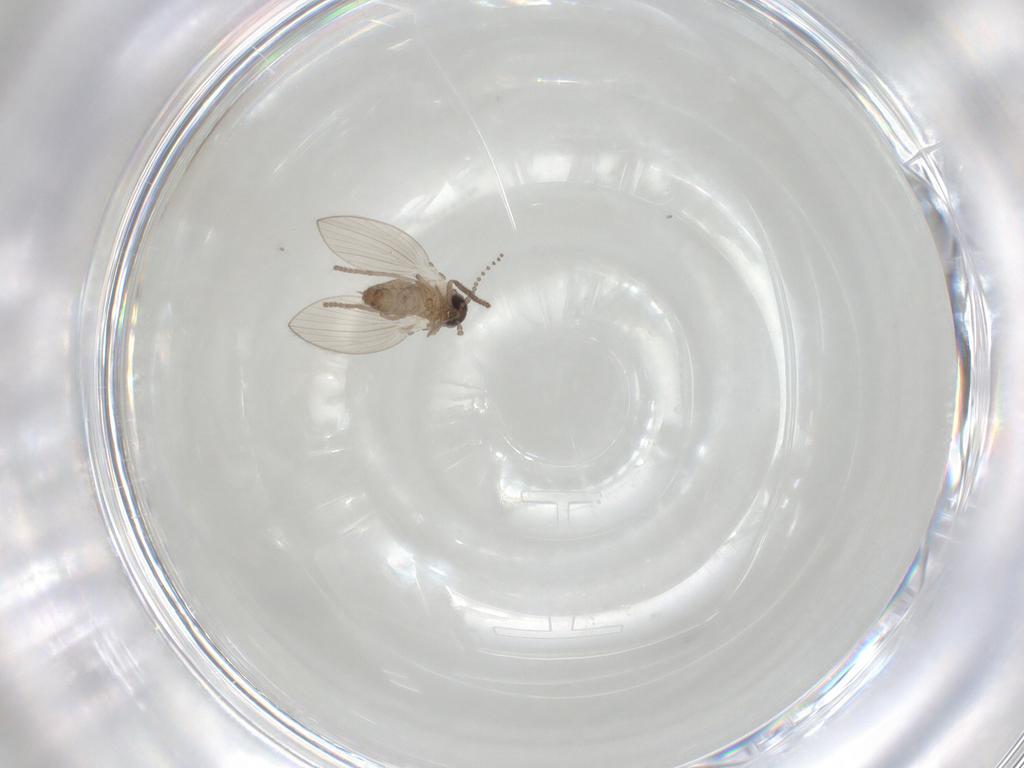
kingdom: Animalia
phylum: Arthropoda
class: Insecta
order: Diptera
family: Psychodidae
